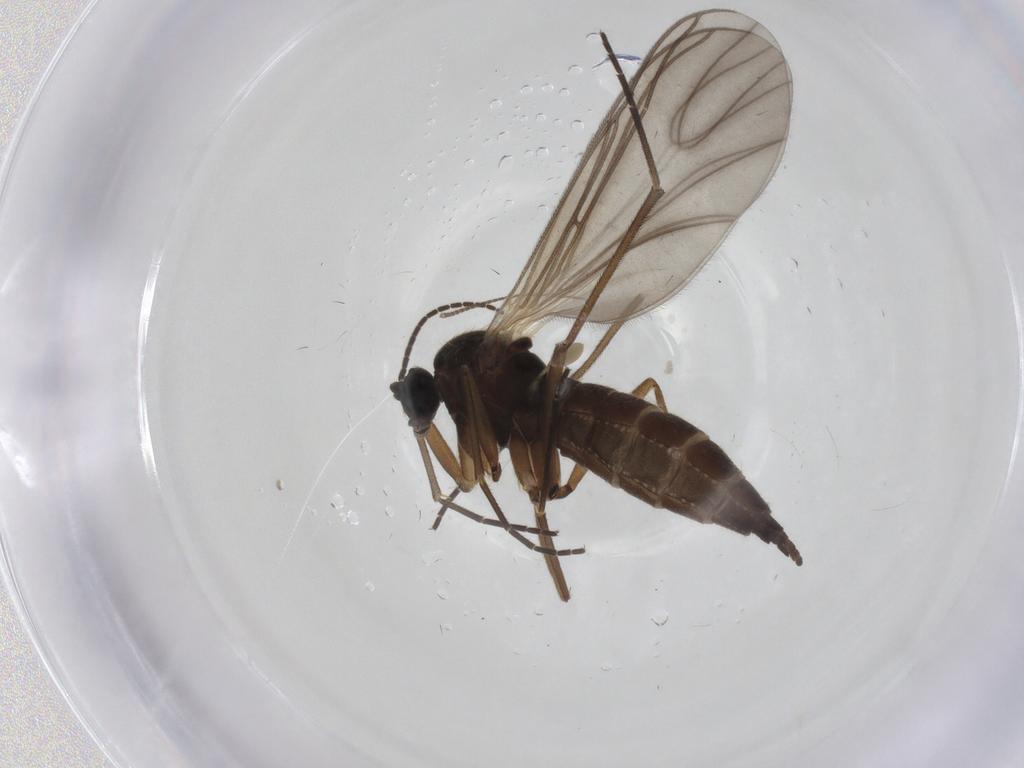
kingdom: Animalia
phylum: Arthropoda
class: Insecta
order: Diptera
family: Sciaridae
